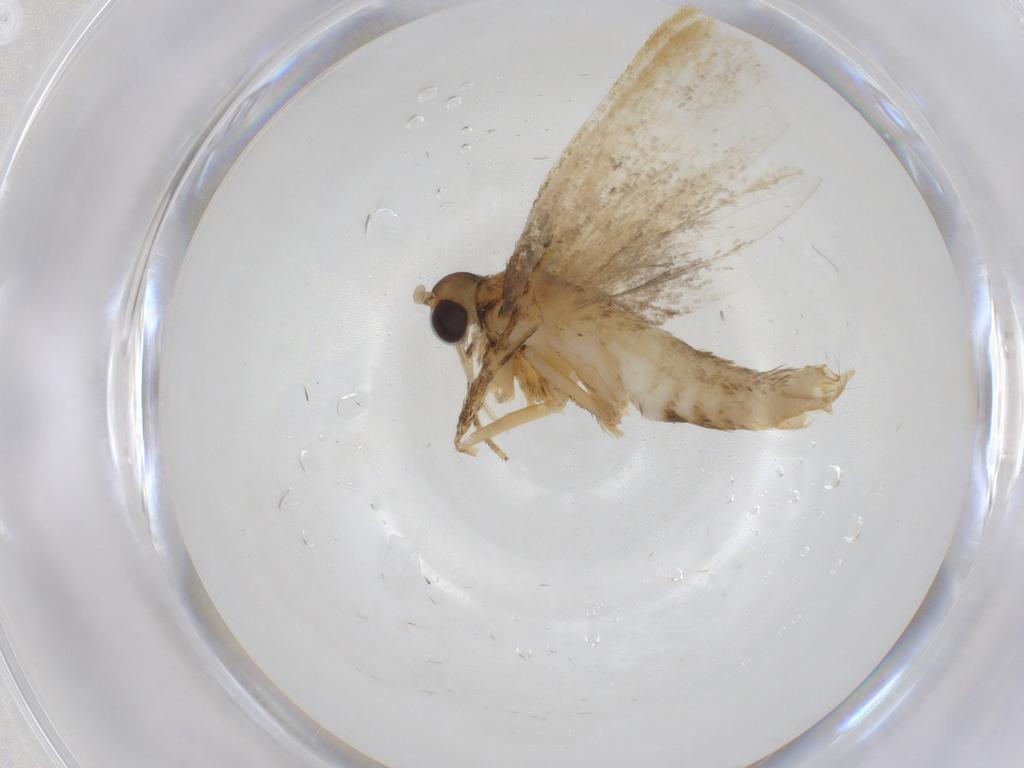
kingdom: Animalia
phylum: Arthropoda
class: Insecta
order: Lepidoptera
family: Lecithoceridae
